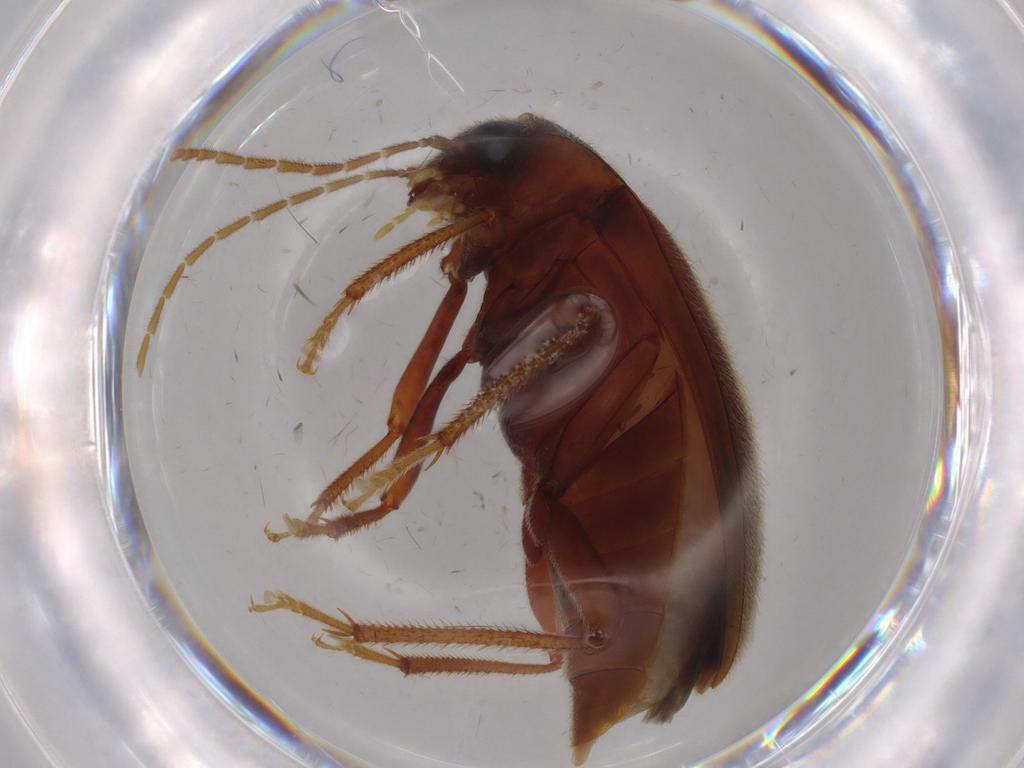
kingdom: Animalia
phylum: Arthropoda
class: Insecta
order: Coleoptera
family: Ptilodactylidae
